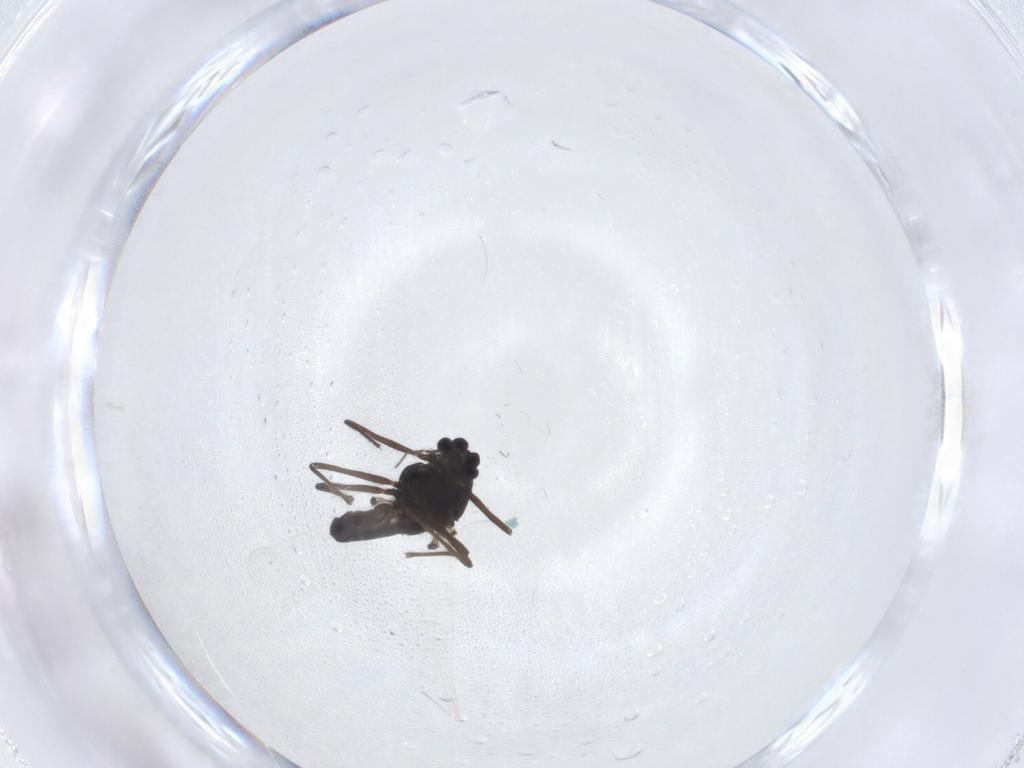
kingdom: Animalia
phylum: Arthropoda
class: Insecta
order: Diptera
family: Chironomidae
